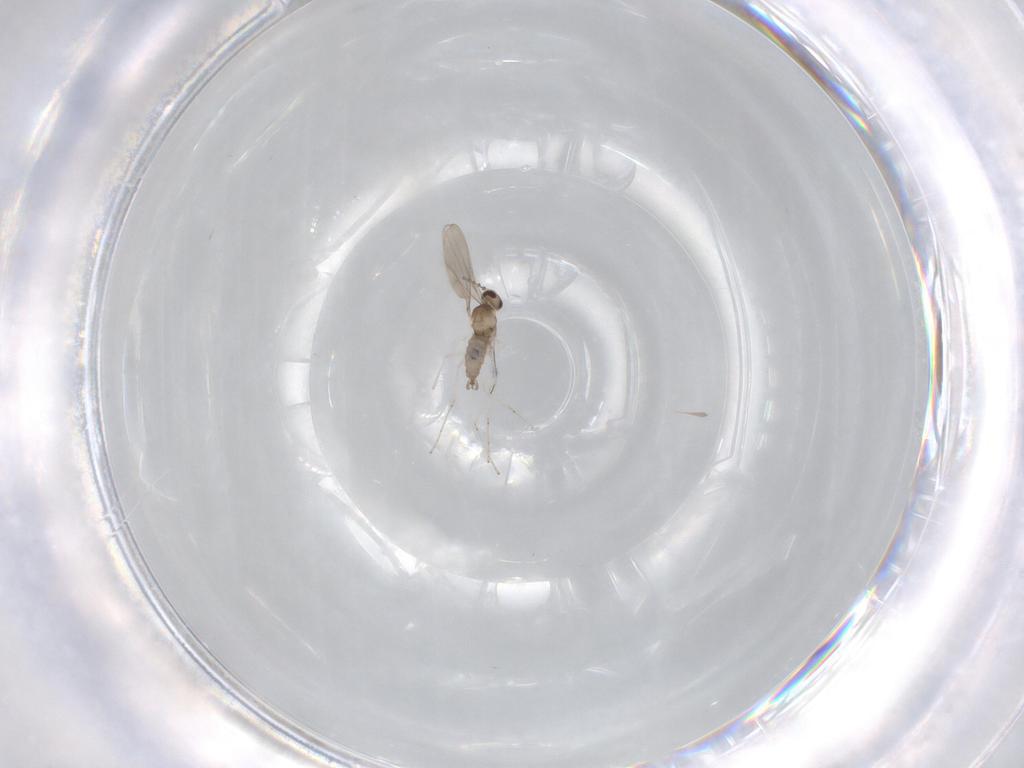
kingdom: Animalia
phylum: Arthropoda
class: Insecta
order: Diptera
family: Cecidomyiidae
